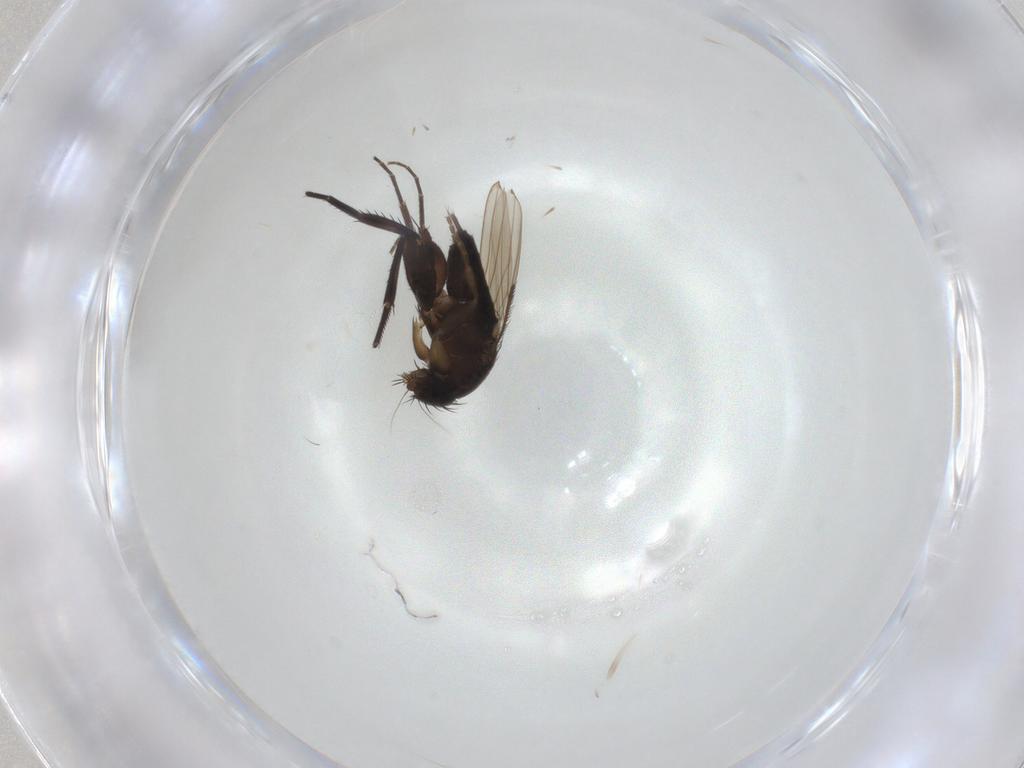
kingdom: Animalia
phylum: Arthropoda
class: Insecta
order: Diptera
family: Sciaridae
